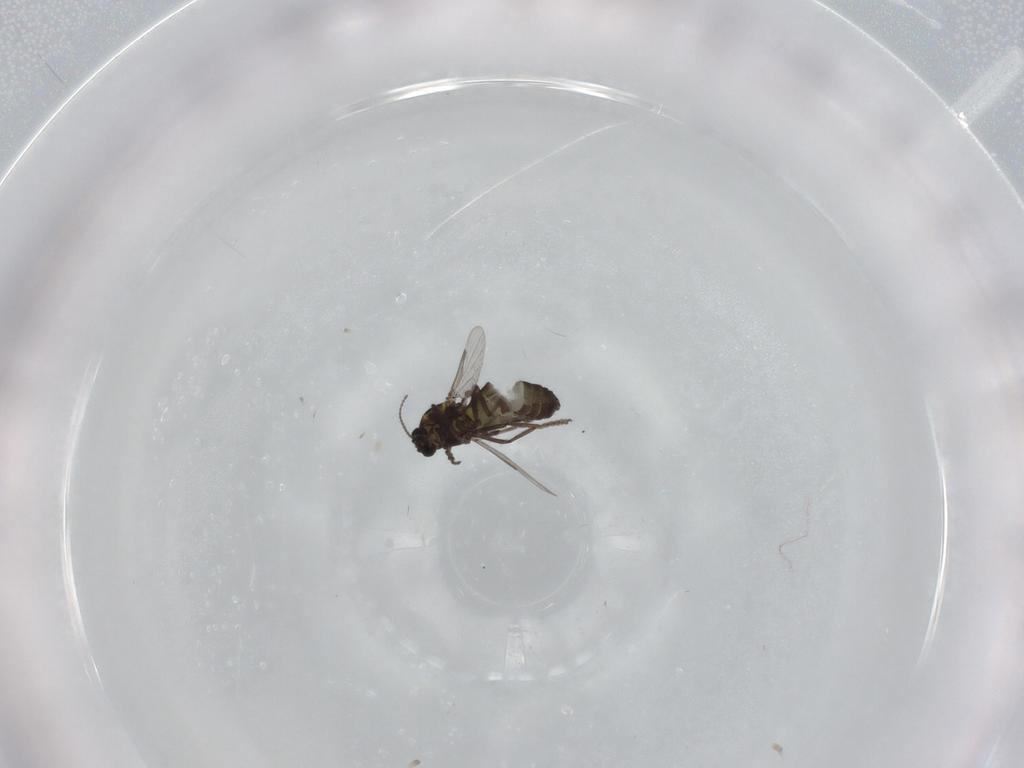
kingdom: Animalia
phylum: Arthropoda
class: Insecta
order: Diptera
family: Ceratopogonidae
